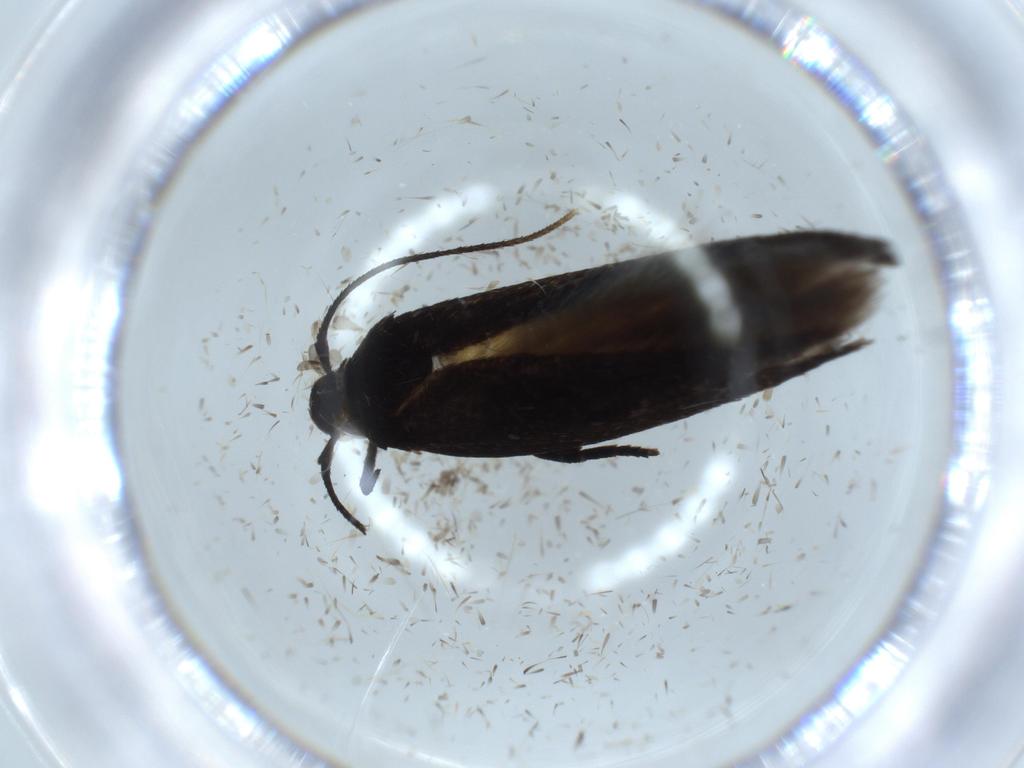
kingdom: Animalia
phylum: Arthropoda
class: Insecta
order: Lepidoptera
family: Cosmopterigidae
